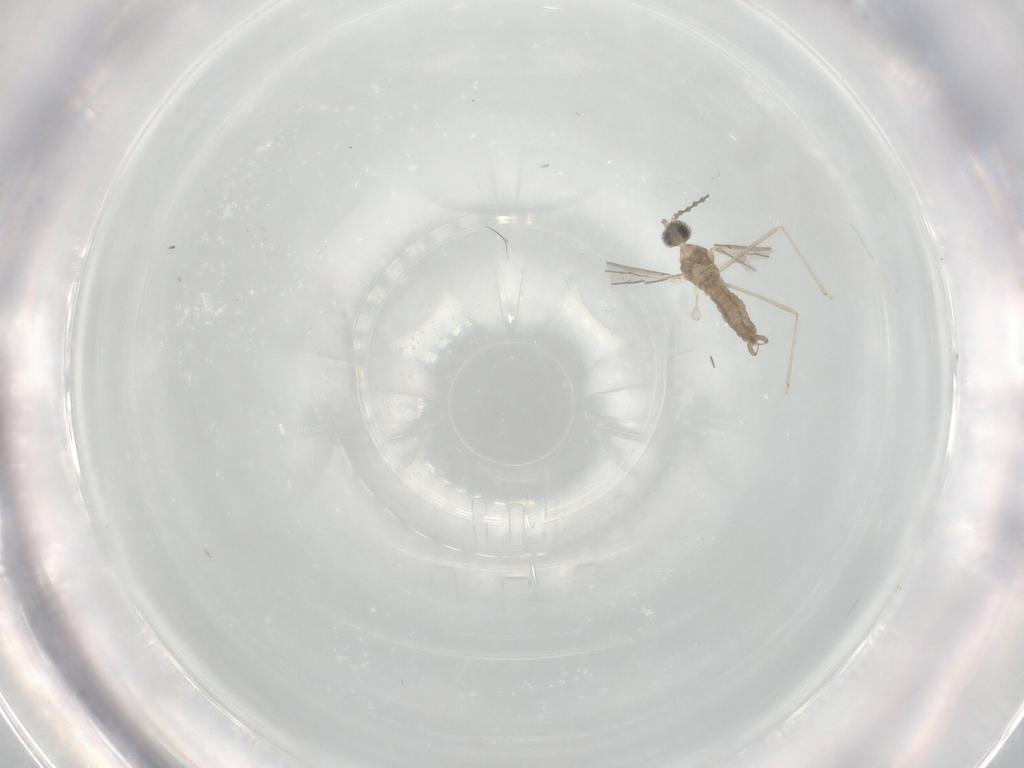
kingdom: Animalia
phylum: Arthropoda
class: Insecta
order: Diptera
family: Cecidomyiidae
